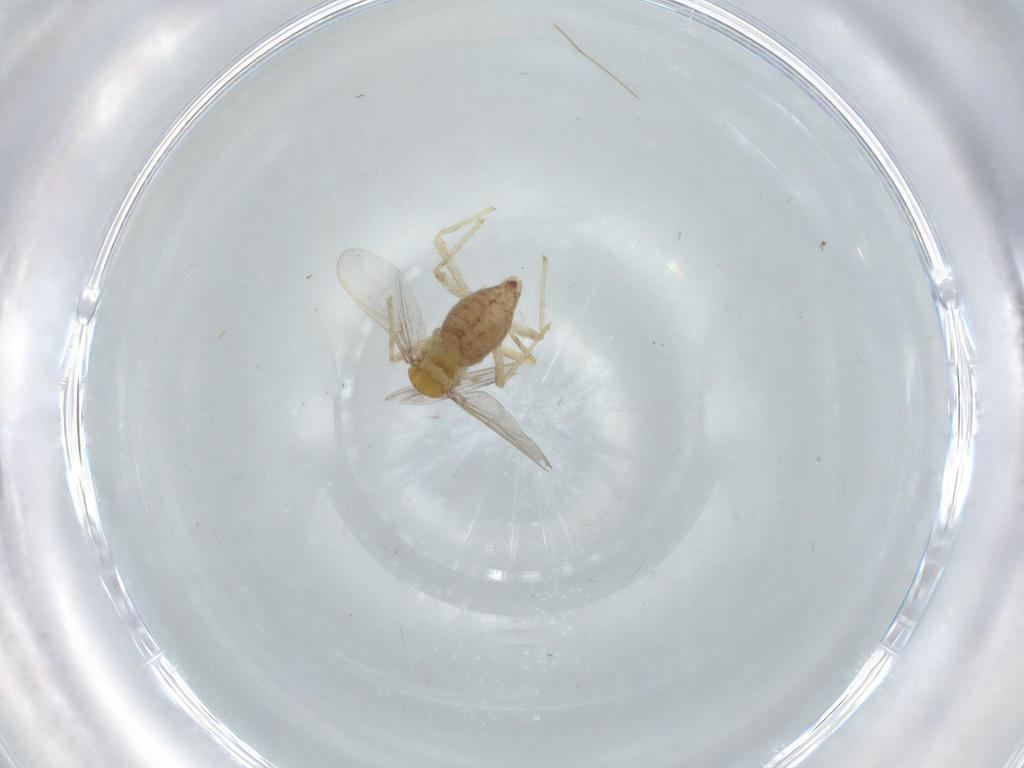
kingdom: Animalia
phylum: Arthropoda
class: Insecta
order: Diptera
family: Chironomidae
